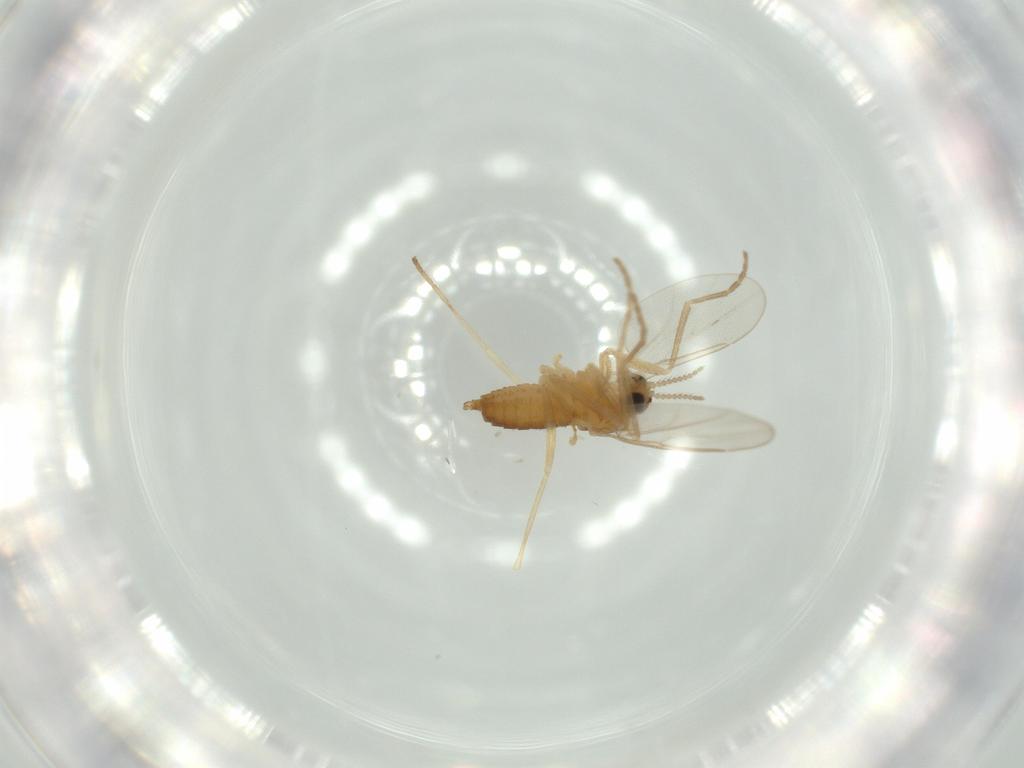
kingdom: Animalia
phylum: Arthropoda
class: Insecta
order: Diptera
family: Cecidomyiidae
